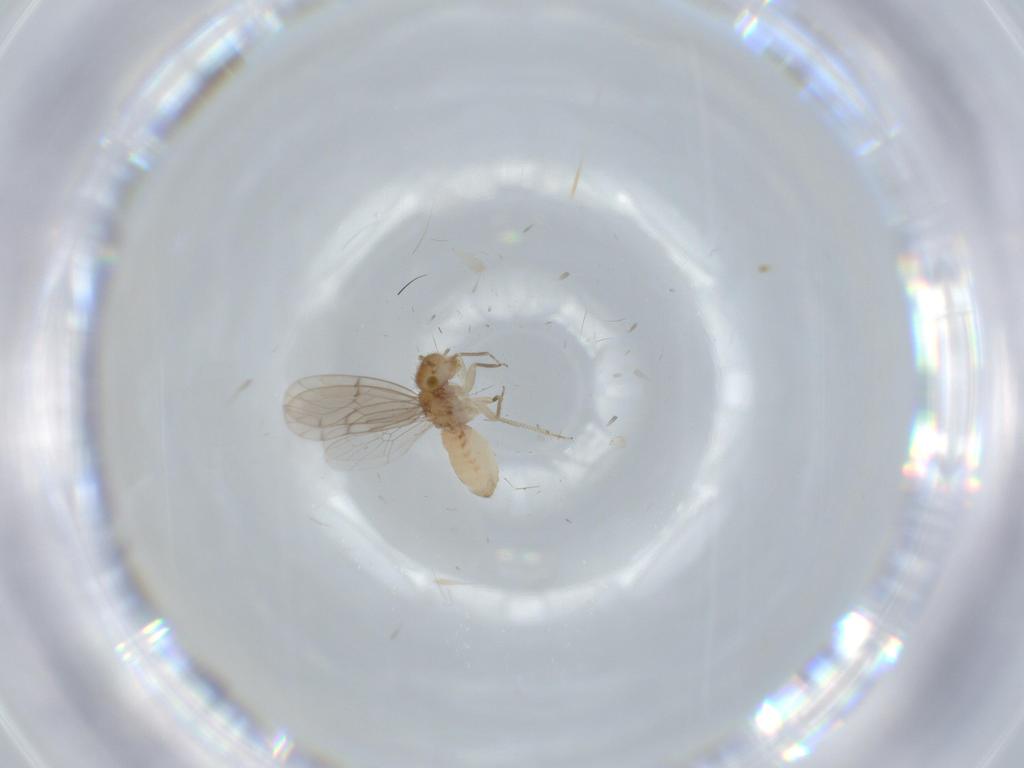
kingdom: Animalia
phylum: Arthropoda
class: Insecta
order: Psocodea
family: Ectopsocidae
